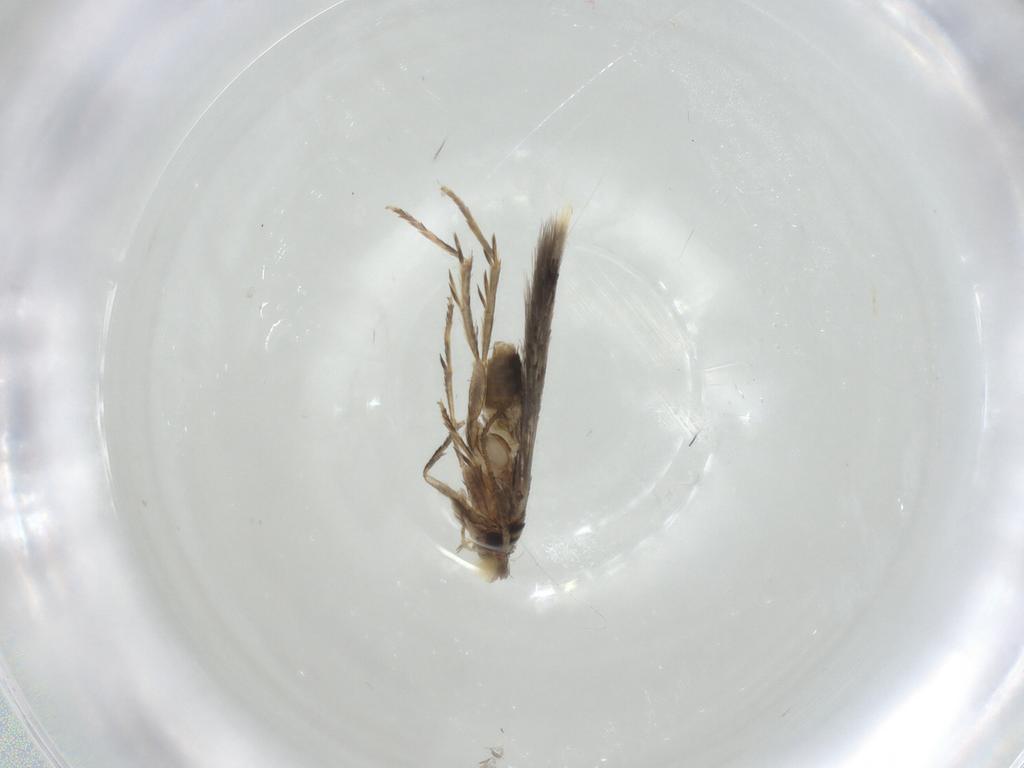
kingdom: Animalia
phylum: Arthropoda
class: Insecta
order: Lepidoptera
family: Nepticulidae
